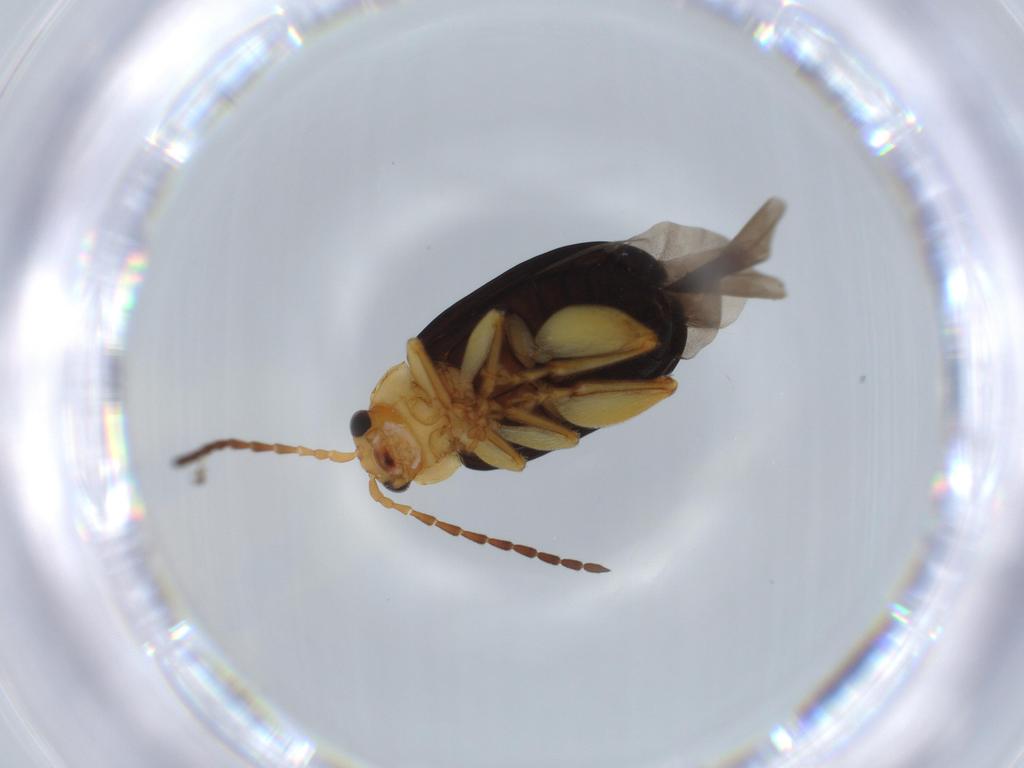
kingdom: Animalia
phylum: Arthropoda
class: Insecta
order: Coleoptera
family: Chrysomelidae
